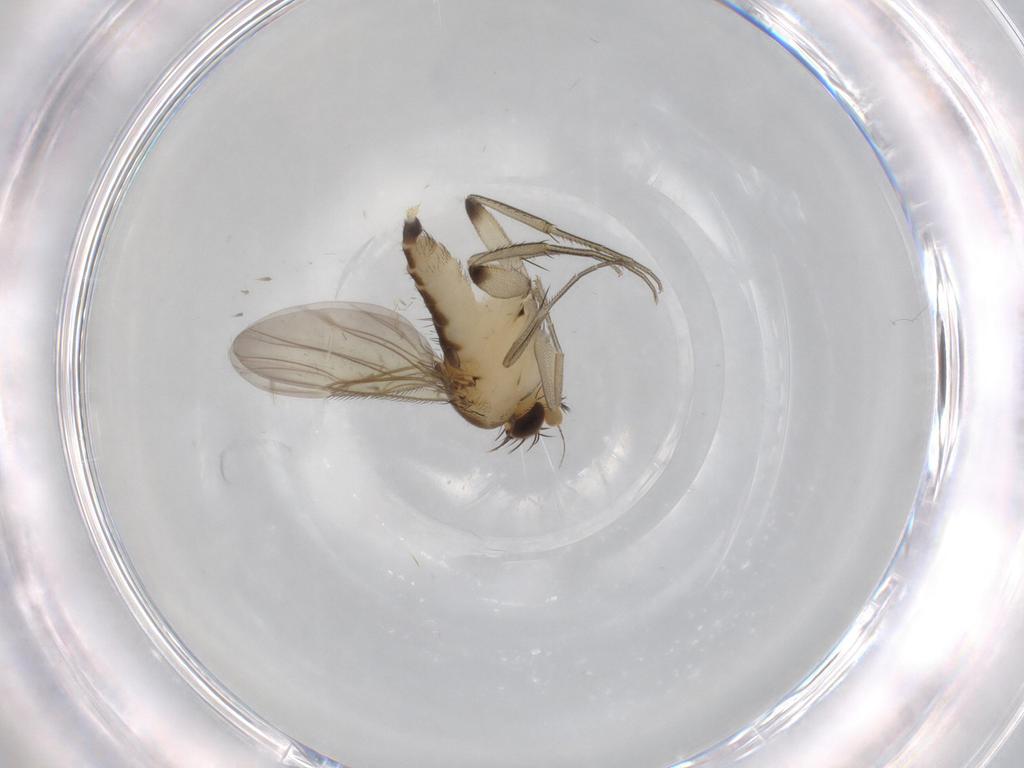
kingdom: Animalia
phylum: Arthropoda
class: Insecta
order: Diptera
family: Phoridae
